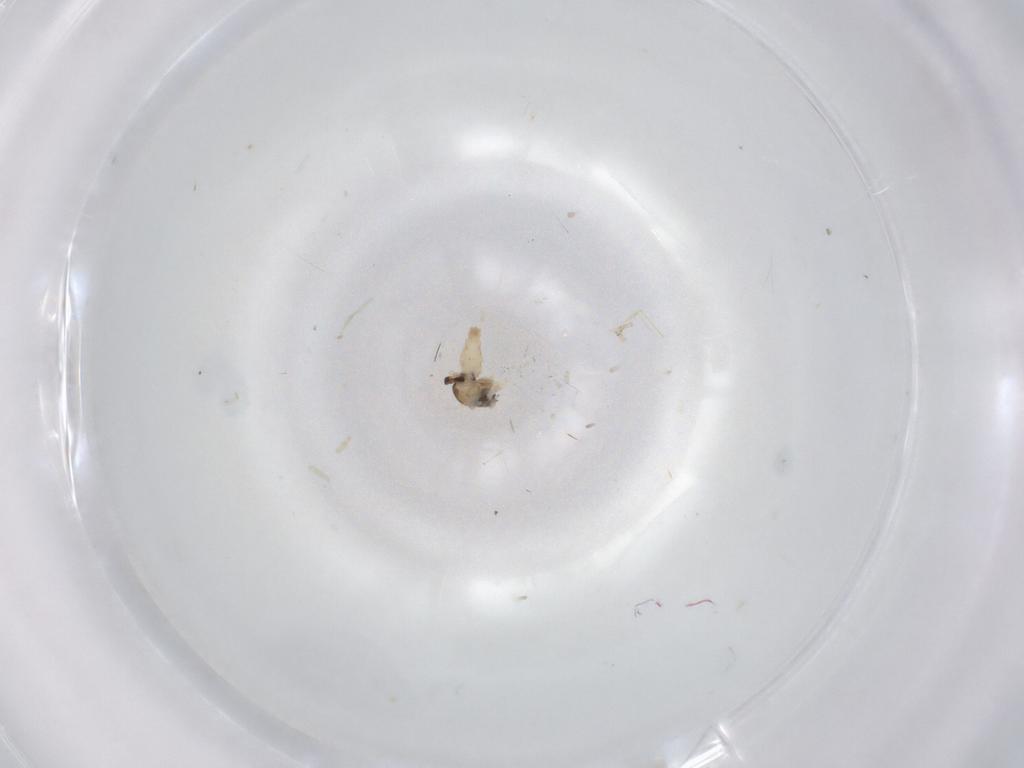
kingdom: Animalia
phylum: Arthropoda
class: Insecta
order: Diptera
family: Cecidomyiidae
